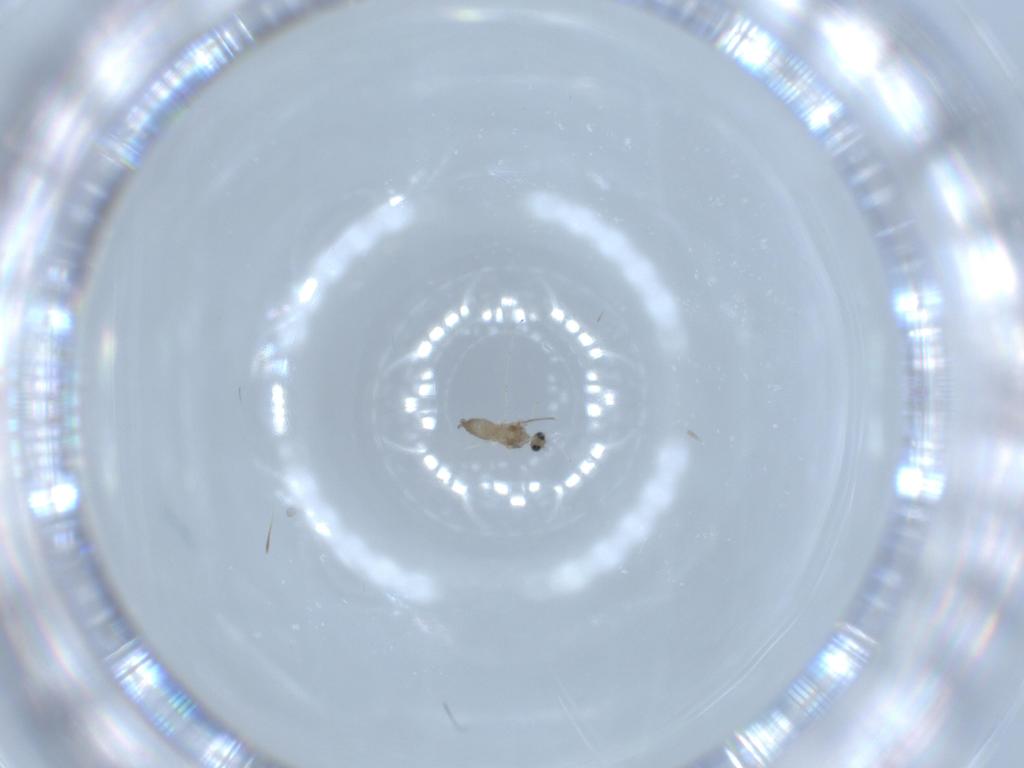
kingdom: Animalia
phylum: Arthropoda
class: Insecta
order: Diptera
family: Cecidomyiidae
